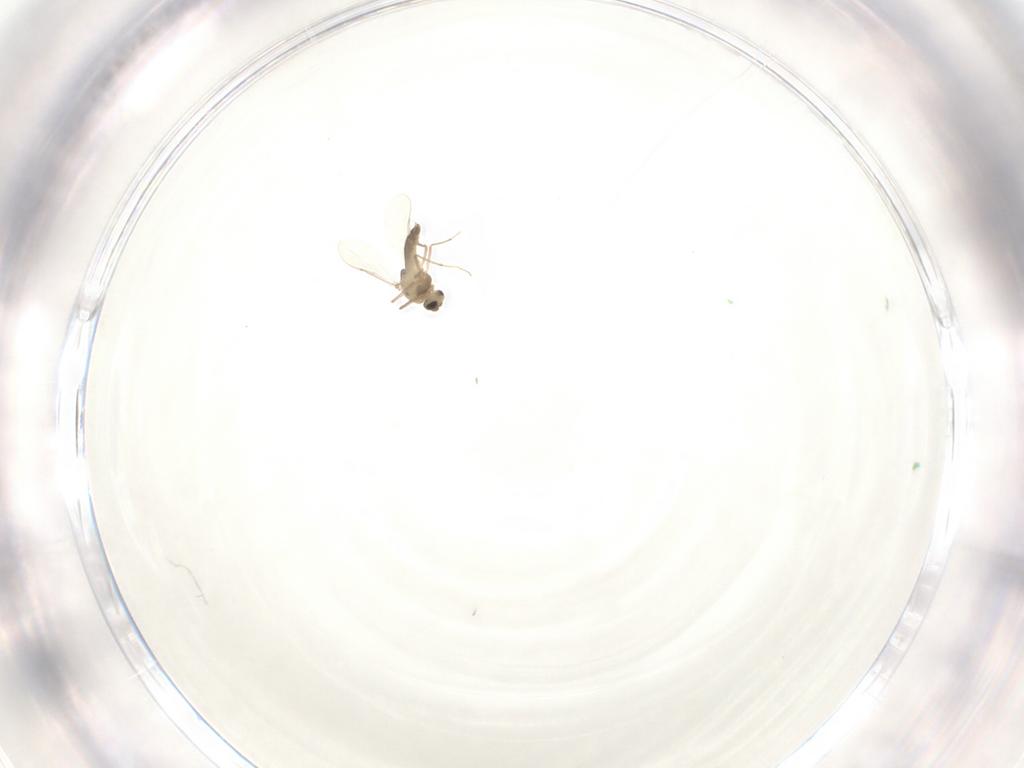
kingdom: Animalia
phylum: Arthropoda
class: Insecta
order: Diptera
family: Chironomidae
